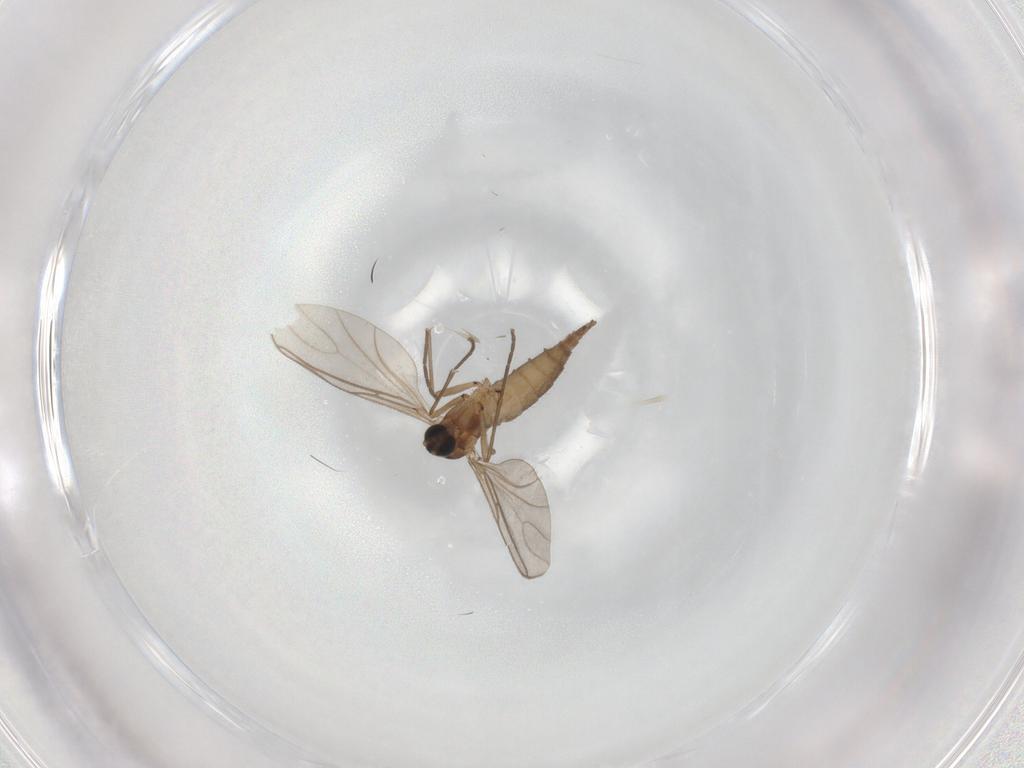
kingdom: Animalia
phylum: Arthropoda
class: Insecta
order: Diptera
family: Sciaridae
